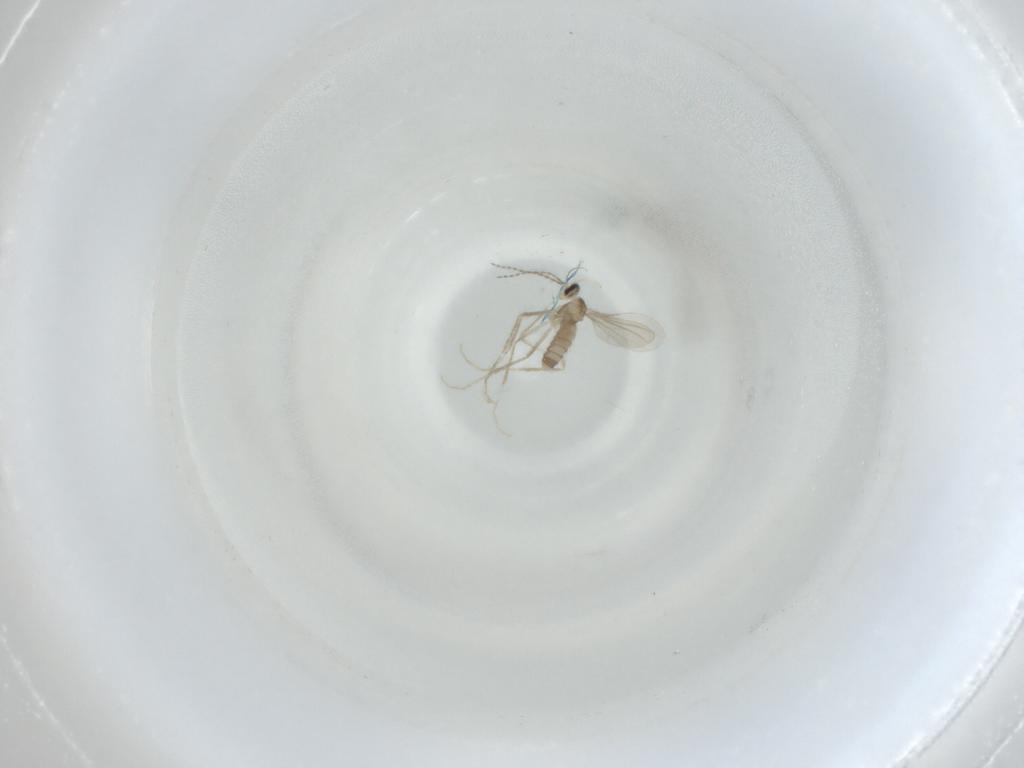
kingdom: Animalia
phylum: Arthropoda
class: Insecta
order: Diptera
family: Cecidomyiidae
